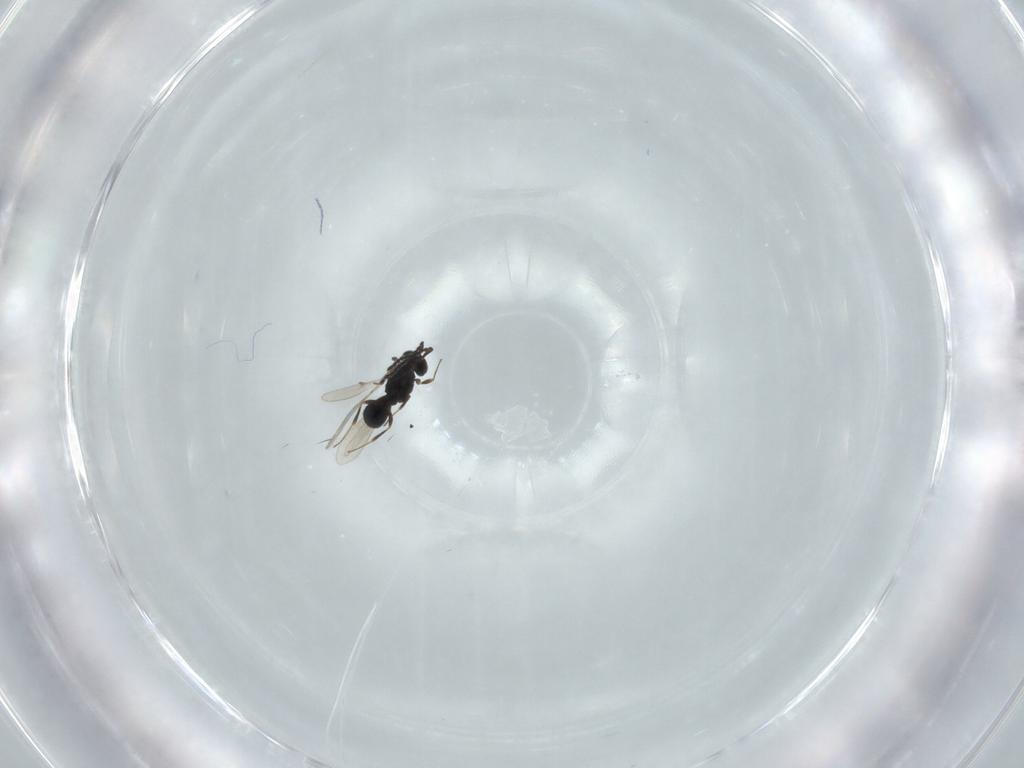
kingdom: Animalia
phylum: Arthropoda
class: Insecta
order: Hymenoptera
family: Scelionidae
